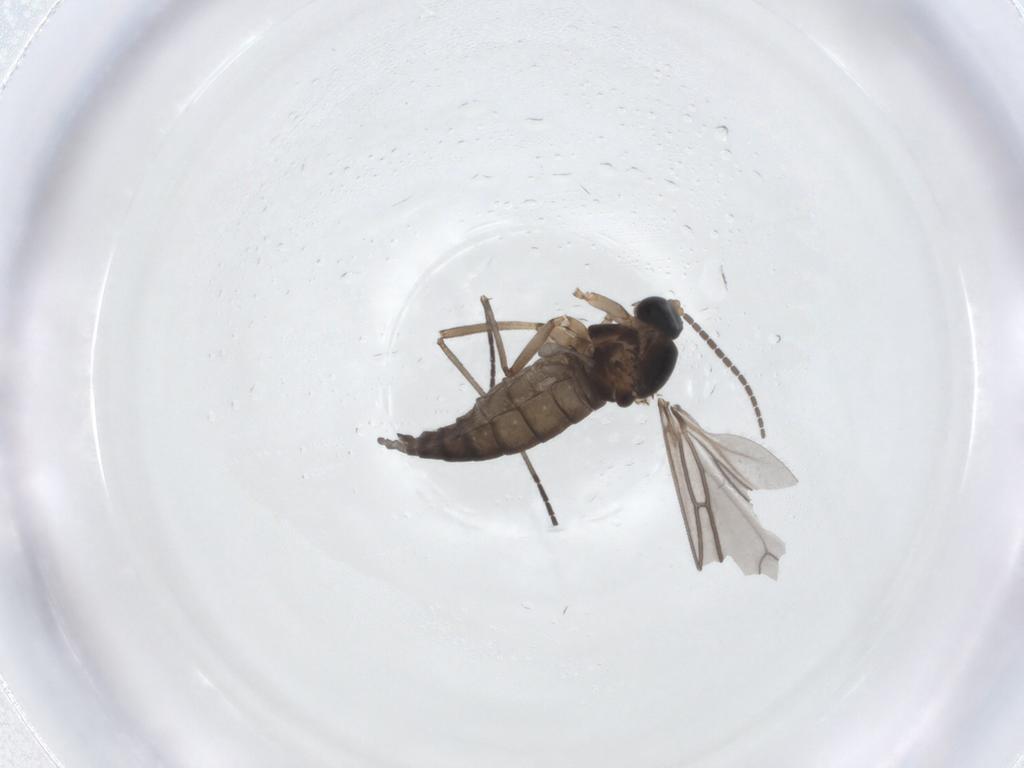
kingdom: Animalia
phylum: Arthropoda
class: Insecta
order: Diptera
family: Sciaridae
